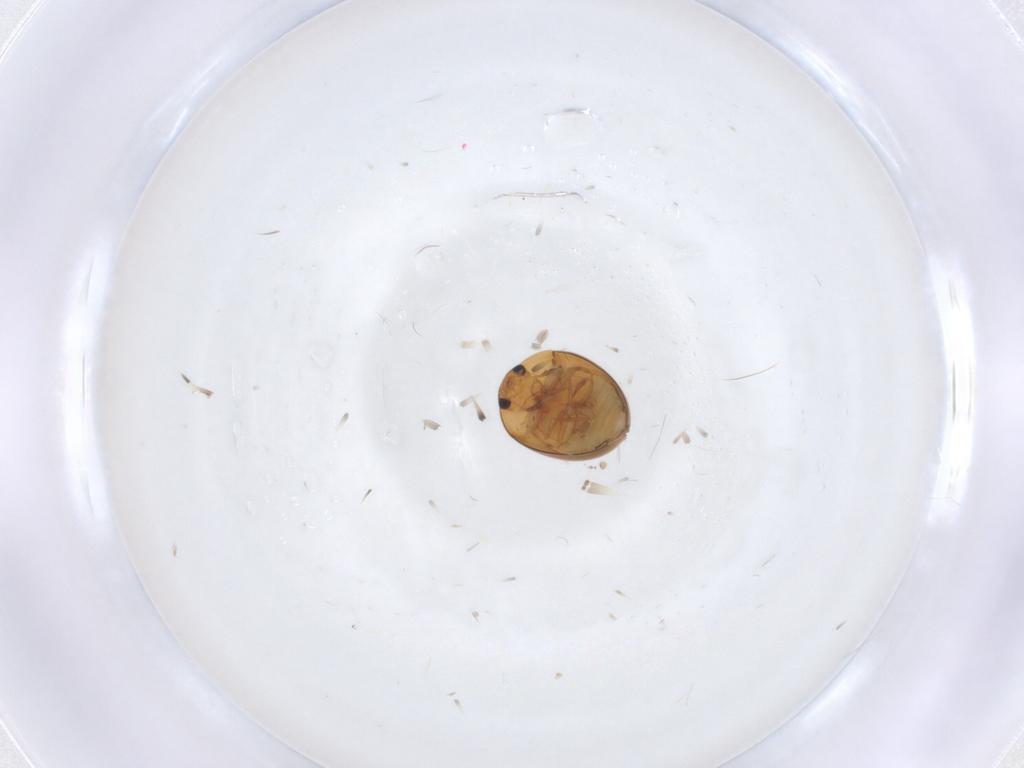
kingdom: Animalia
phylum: Arthropoda
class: Insecta
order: Coleoptera
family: Phalacridae
